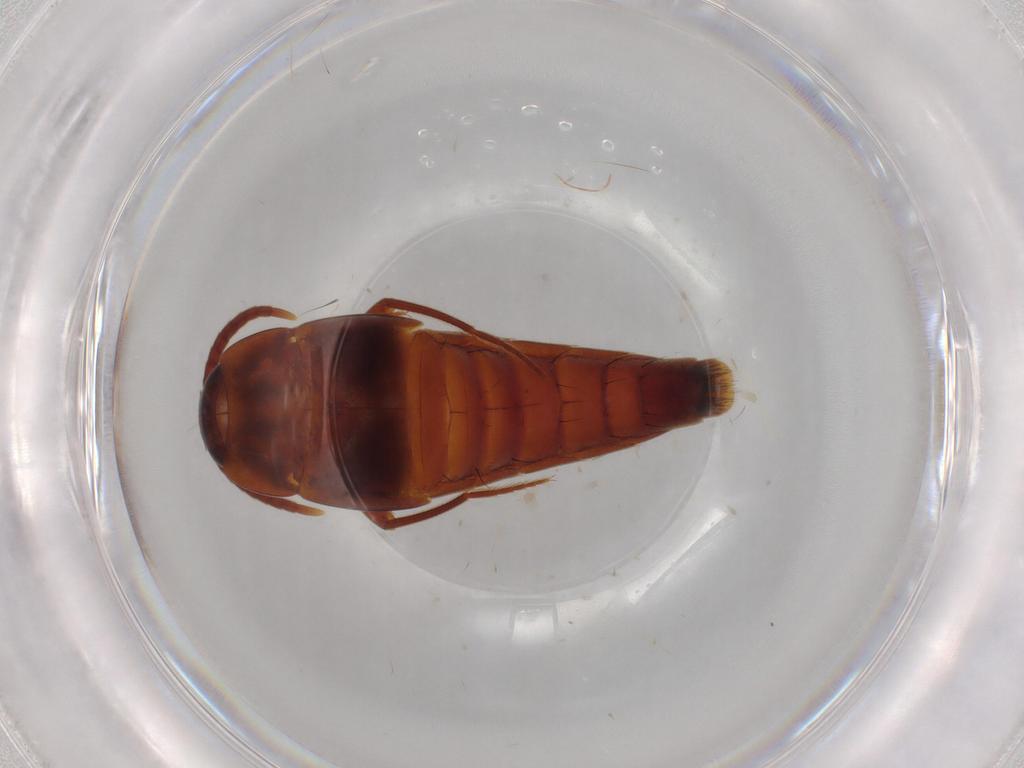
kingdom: Animalia
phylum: Arthropoda
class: Insecta
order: Coleoptera
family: Staphylinidae
